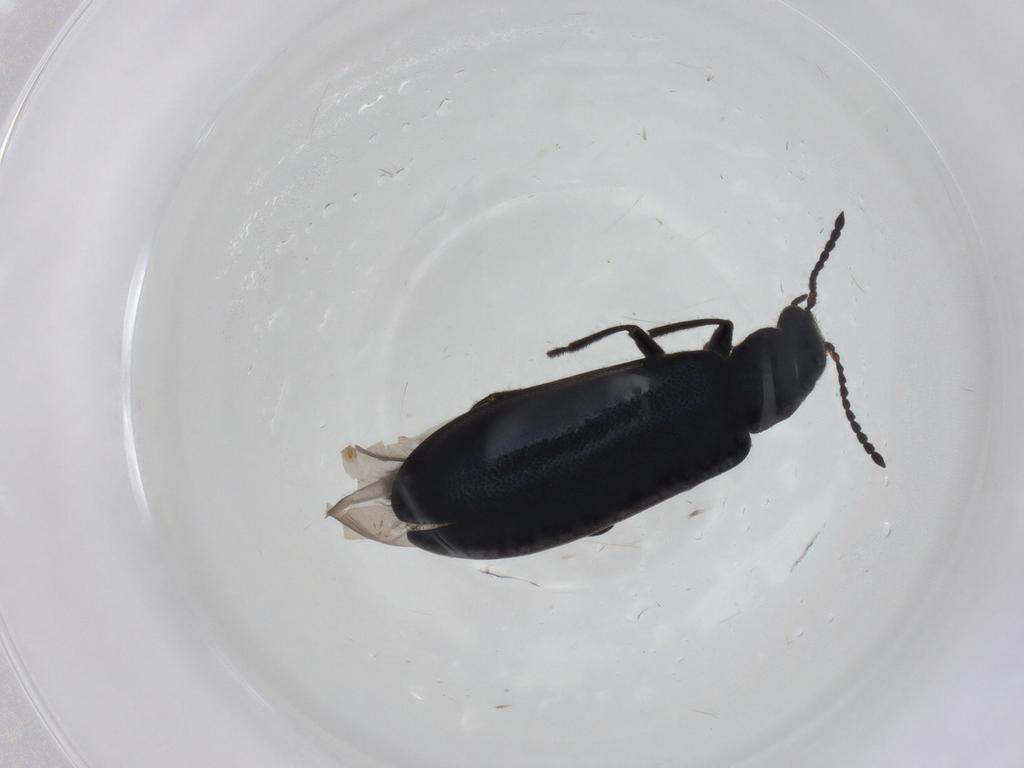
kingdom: Animalia
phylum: Arthropoda
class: Insecta
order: Coleoptera
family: Melyridae
